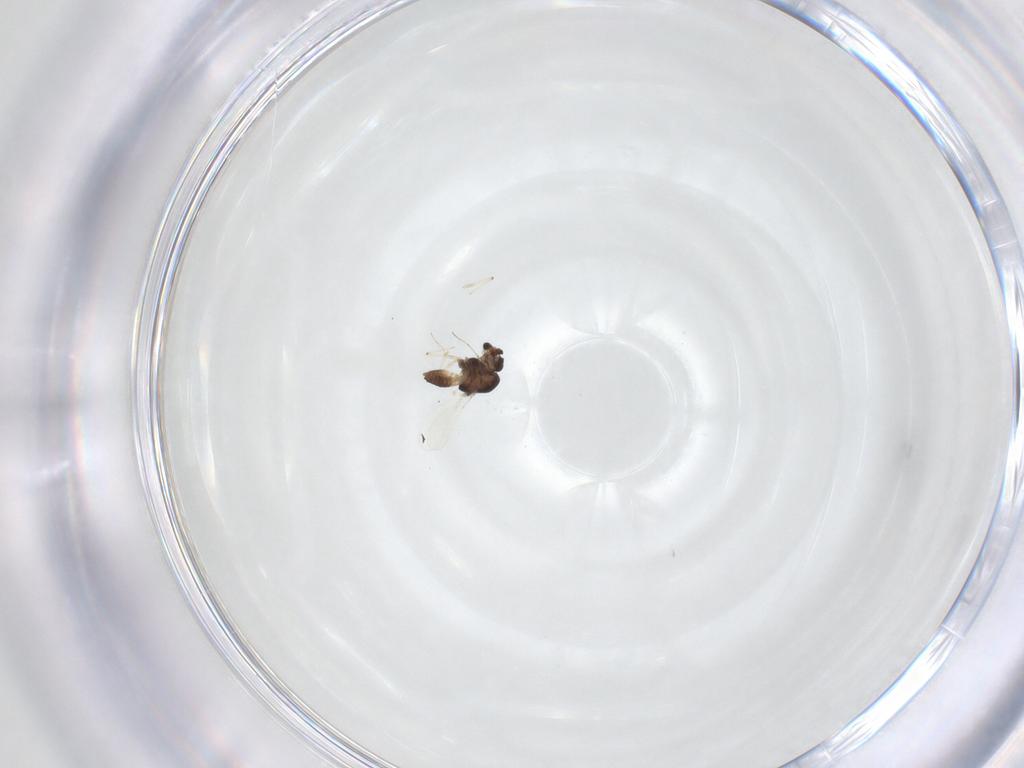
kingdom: Animalia
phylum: Arthropoda
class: Insecta
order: Diptera
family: Chironomidae
